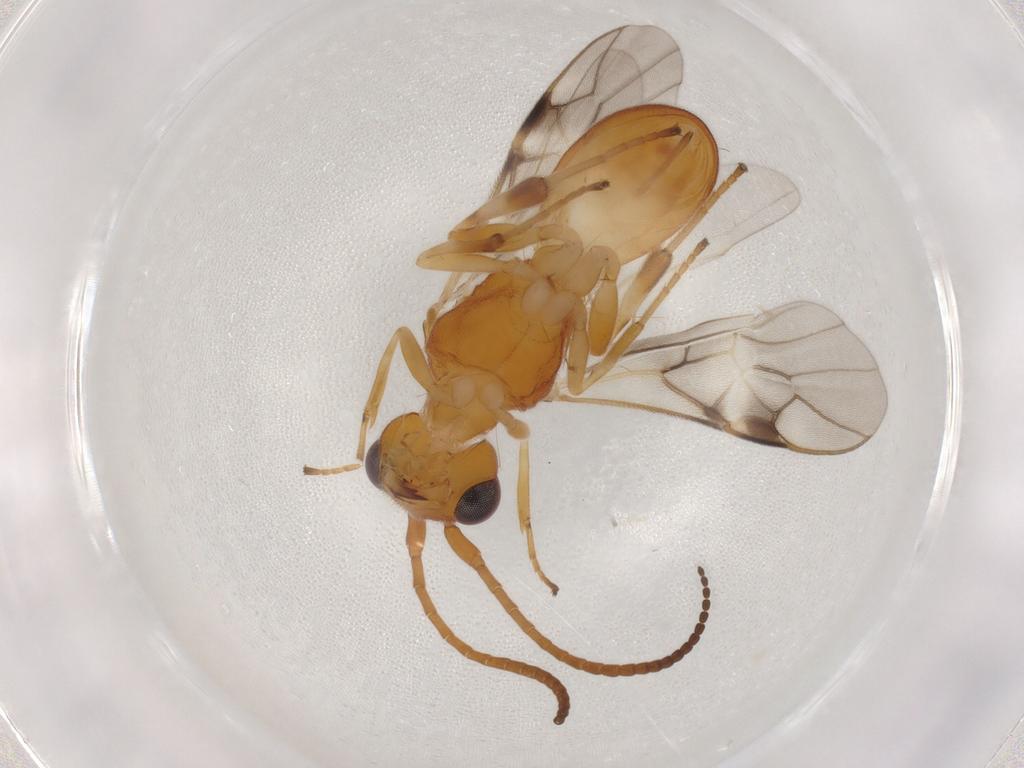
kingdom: Animalia
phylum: Arthropoda
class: Insecta
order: Hymenoptera
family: Braconidae
